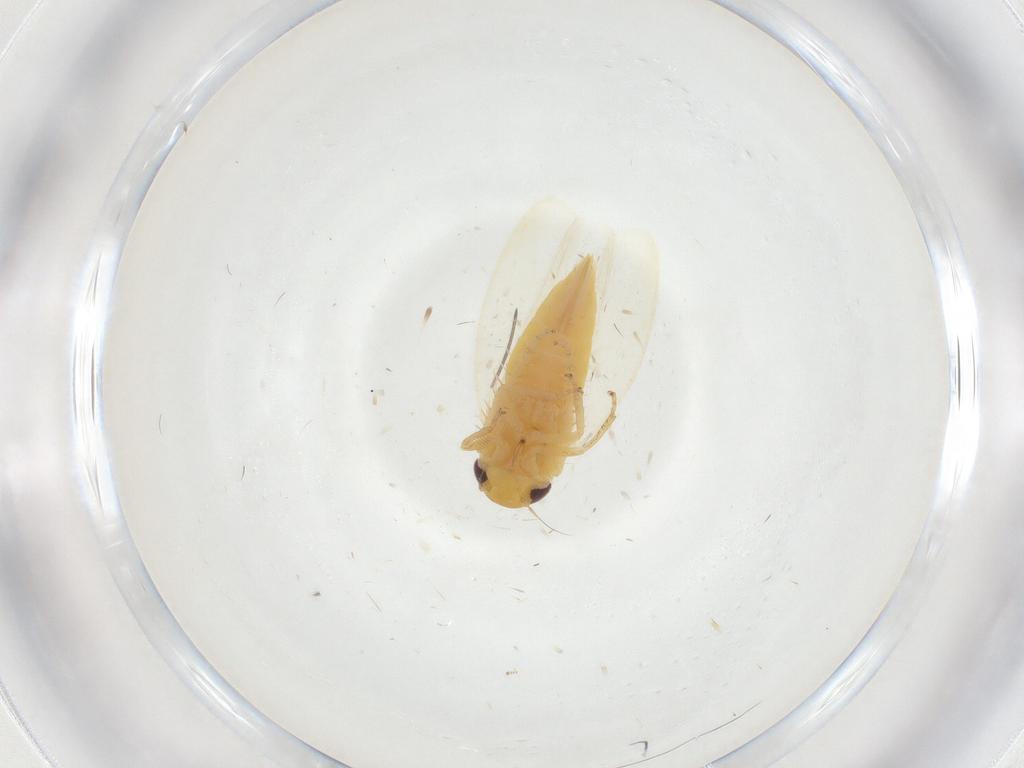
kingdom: Animalia
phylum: Arthropoda
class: Insecta
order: Hemiptera
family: Cicadellidae
